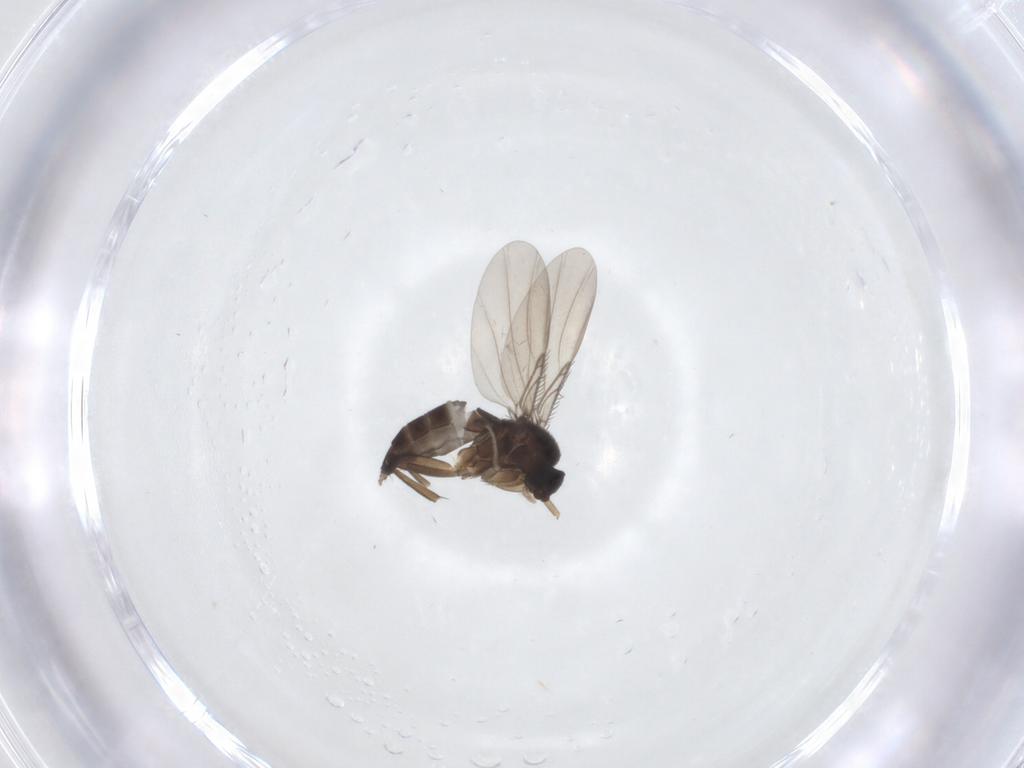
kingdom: Animalia
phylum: Arthropoda
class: Insecta
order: Diptera
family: Phoridae
